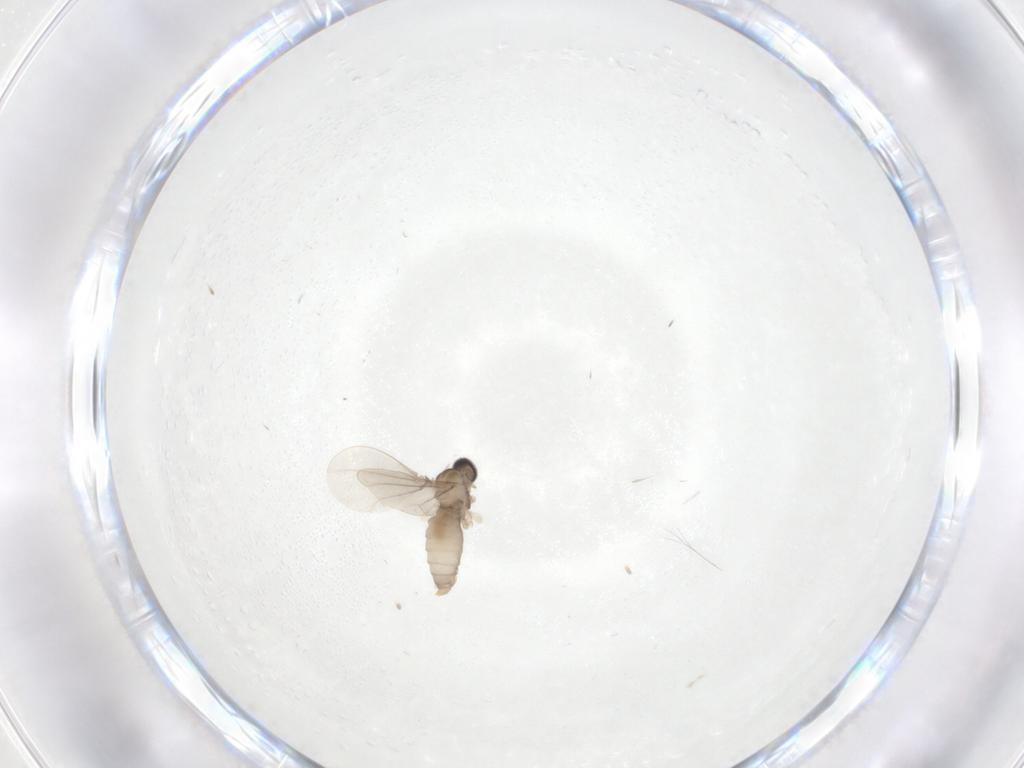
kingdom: Animalia
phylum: Arthropoda
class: Insecta
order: Diptera
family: Cecidomyiidae
